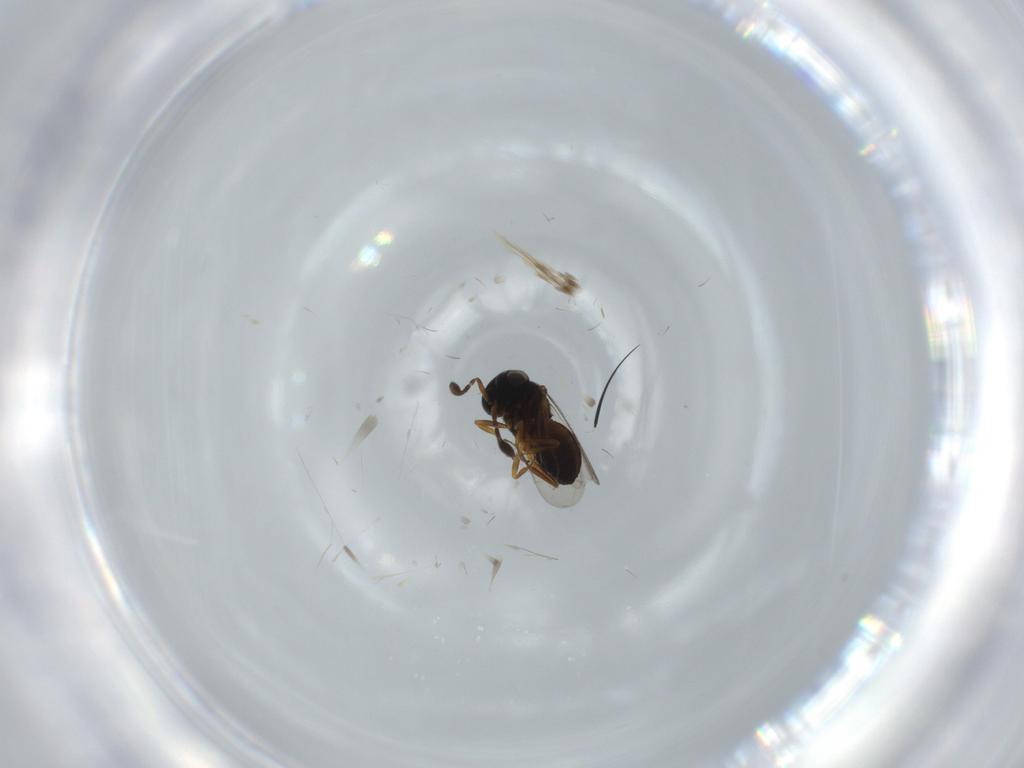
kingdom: Animalia
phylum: Arthropoda
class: Insecta
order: Hymenoptera
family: Scelionidae
